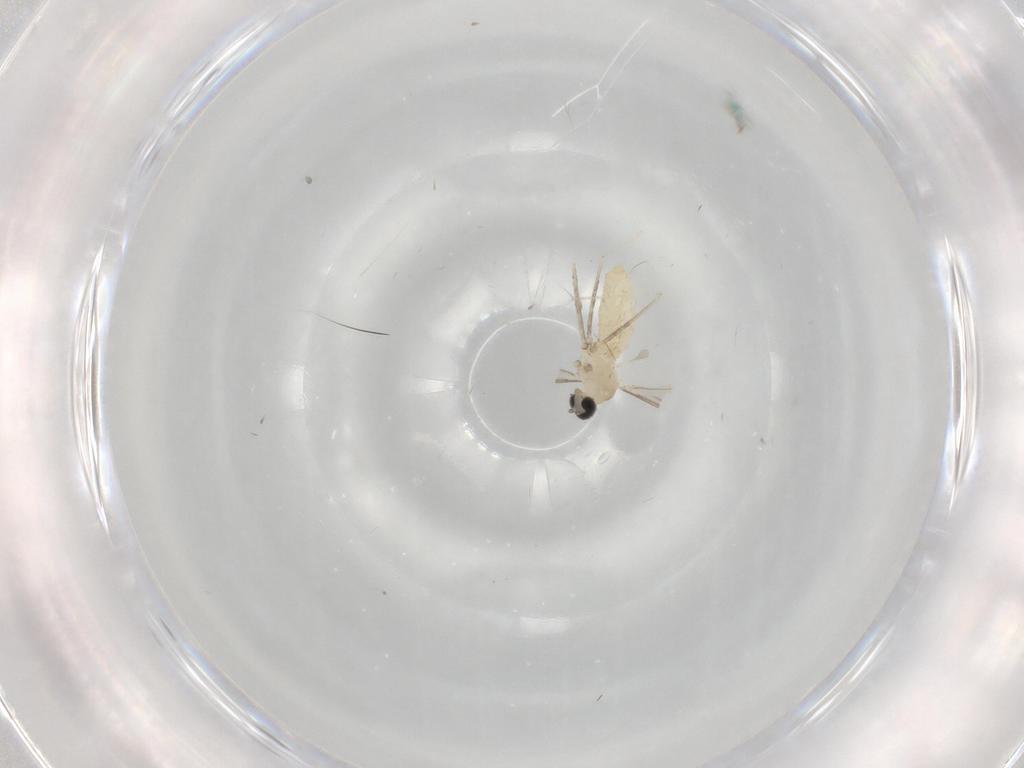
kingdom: Animalia
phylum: Arthropoda
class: Insecta
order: Diptera
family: Cecidomyiidae
